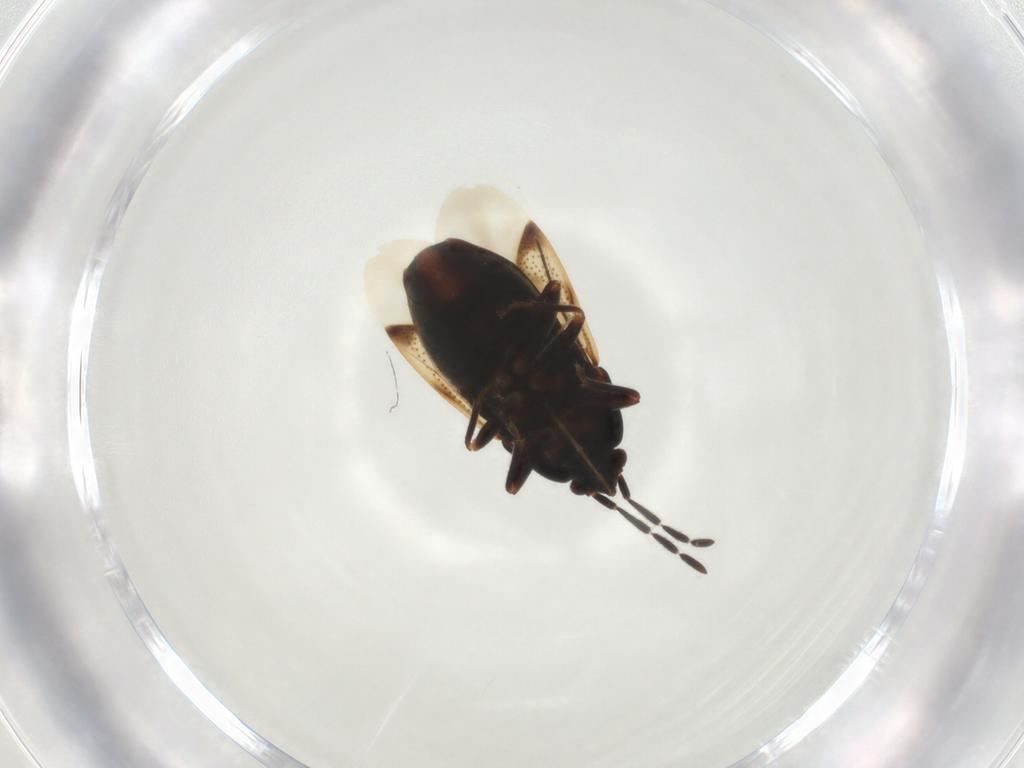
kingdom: Animalia
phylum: Arthropoda
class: Insecta
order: Hemiptera
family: Rhyparochromidae
